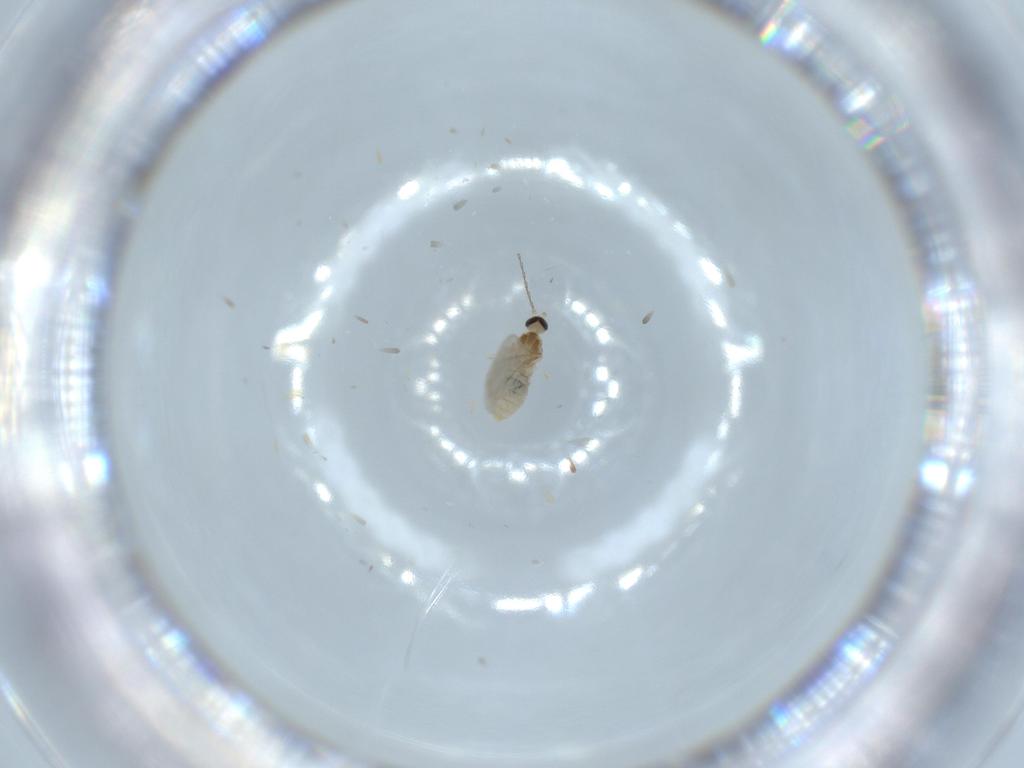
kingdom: Animalia
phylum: Arthropoda
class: Insecta
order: Diptera
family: Cecidomyiidae
